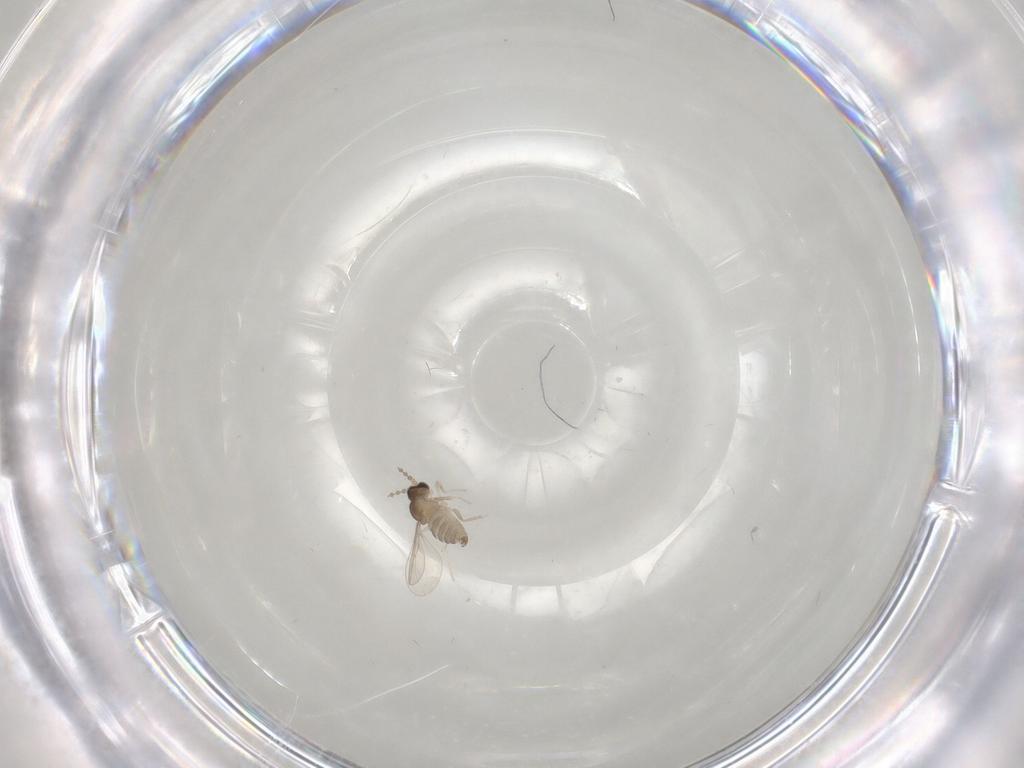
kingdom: Animalia
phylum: Arthropoda
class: Insecta
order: Diptera
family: Cecidomyiidae
